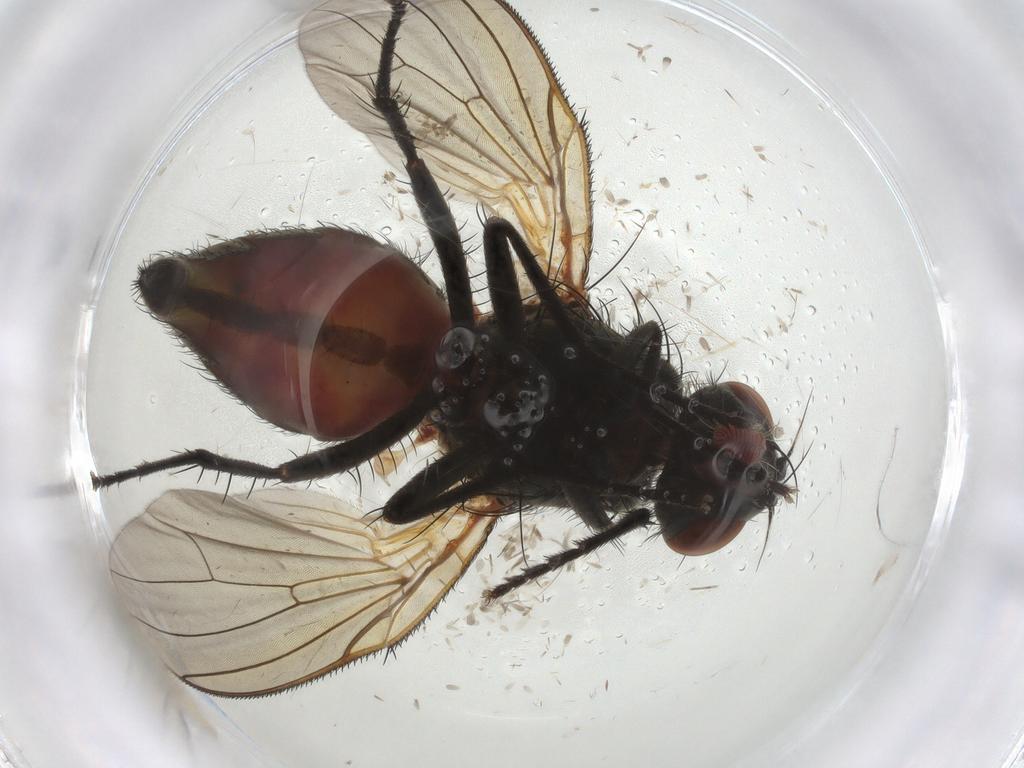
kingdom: Animalia
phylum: Arthropoda
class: Insecta
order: Diptera
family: Anthomyiidae
